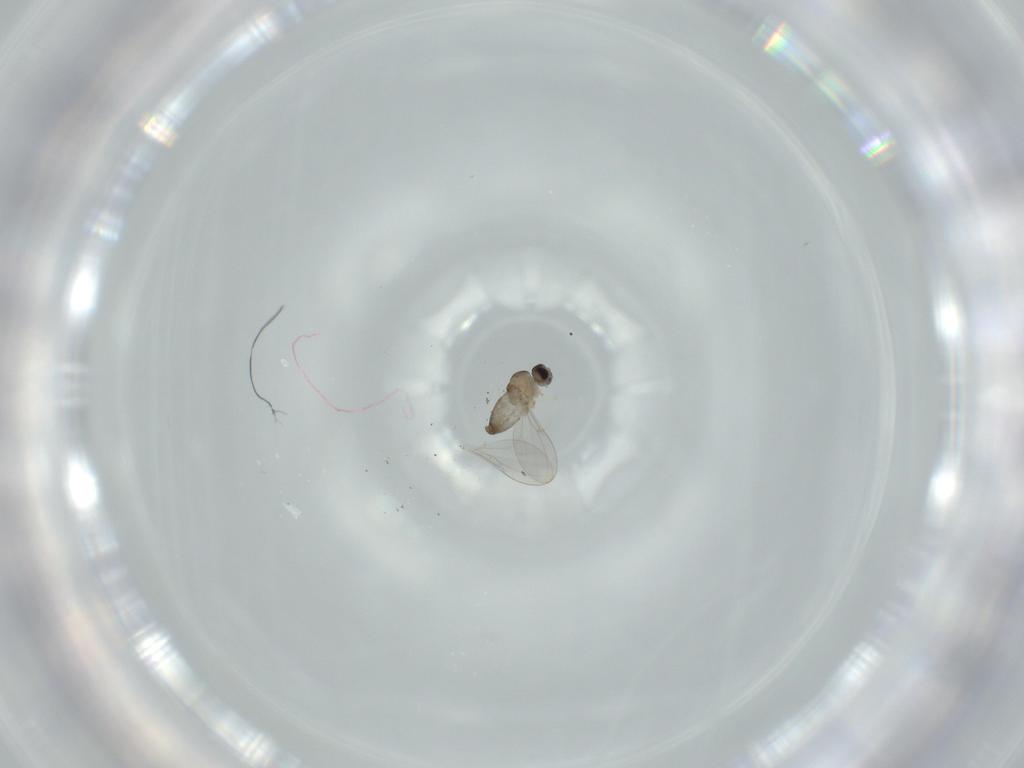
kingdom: Animalia
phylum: Arthropoda
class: Insecta
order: Diptera
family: Cecidomyiidae
